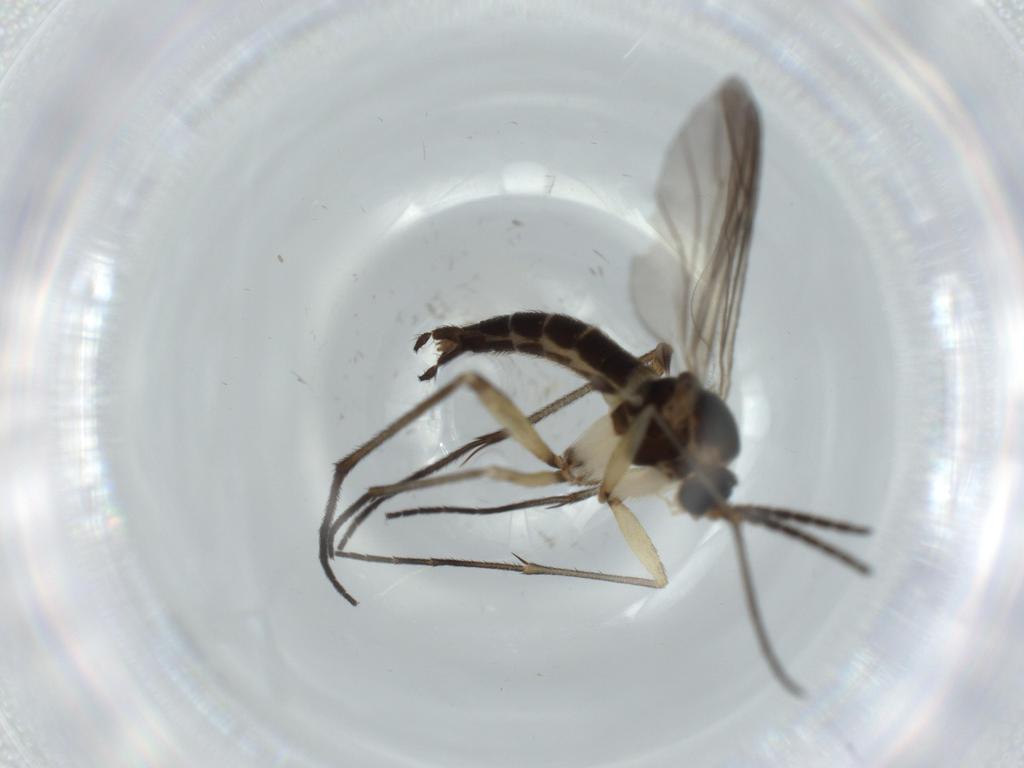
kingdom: Animalia
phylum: Arthropoda
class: Insecta
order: Diptera
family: Sciaridae
